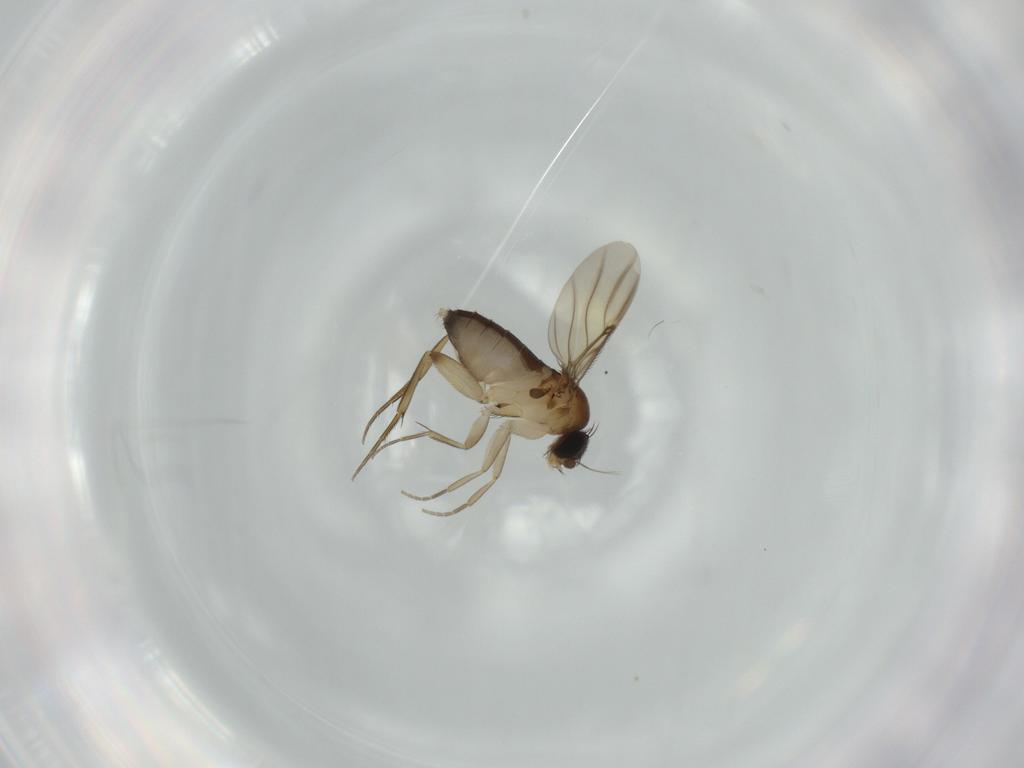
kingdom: Animalia
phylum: Arthropoda
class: Insecta
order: Diptera
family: Phoridae
